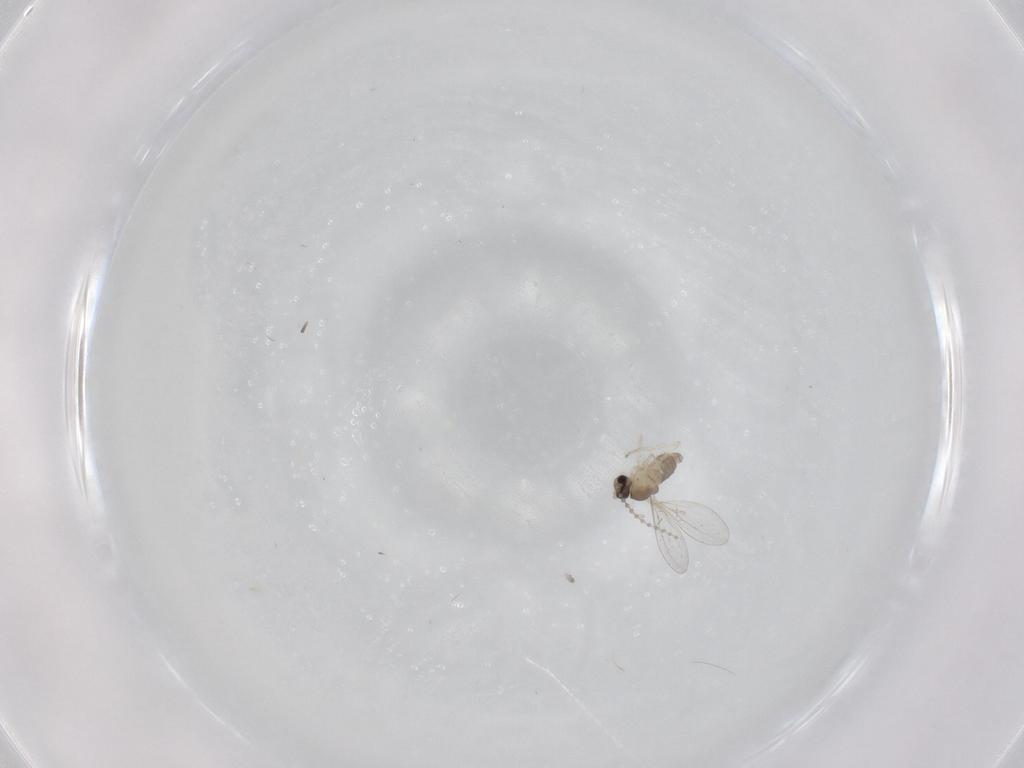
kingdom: Animalia
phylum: Arthropoda
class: Insecta
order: Diptera
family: Cecidomyiidae
